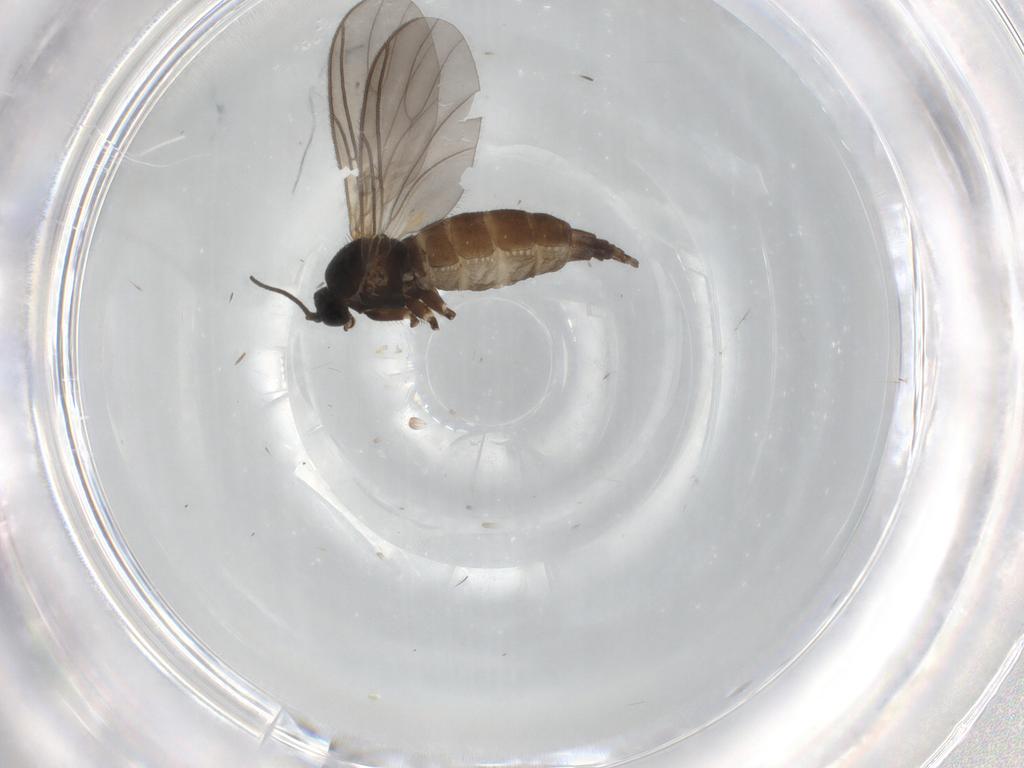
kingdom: Animalia
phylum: Arthropoda
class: Insecta
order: Diptera
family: Sciaridae
